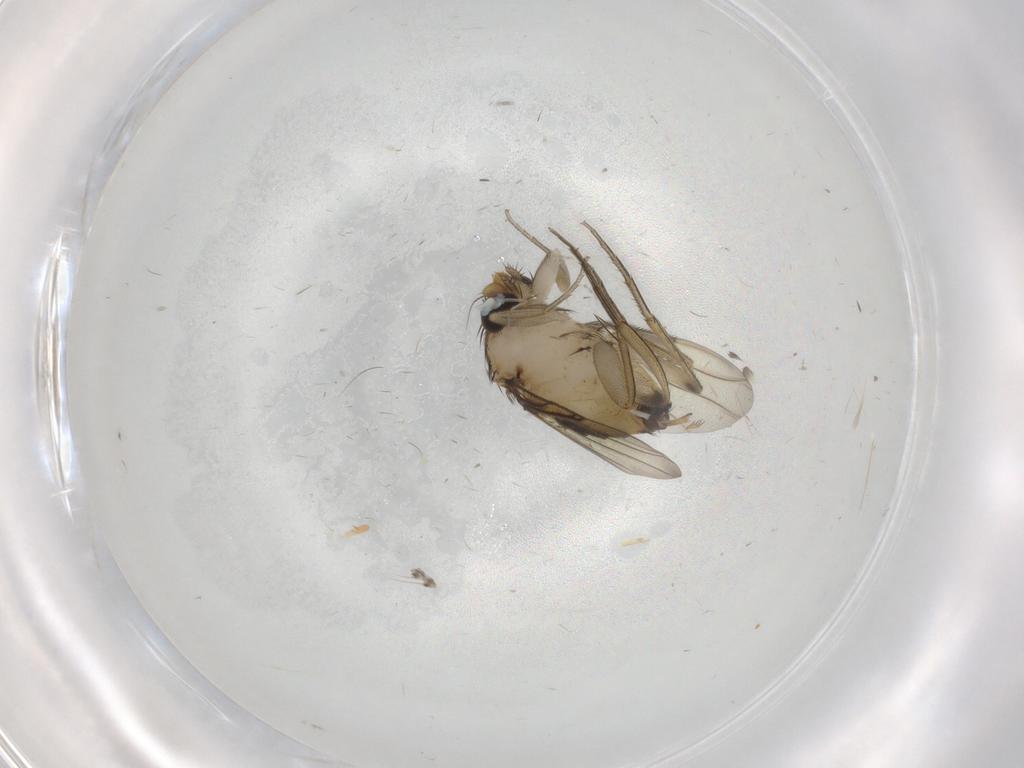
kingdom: Animalia
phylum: Arthropoda
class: Insecta
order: Diptera
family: Phoridae
